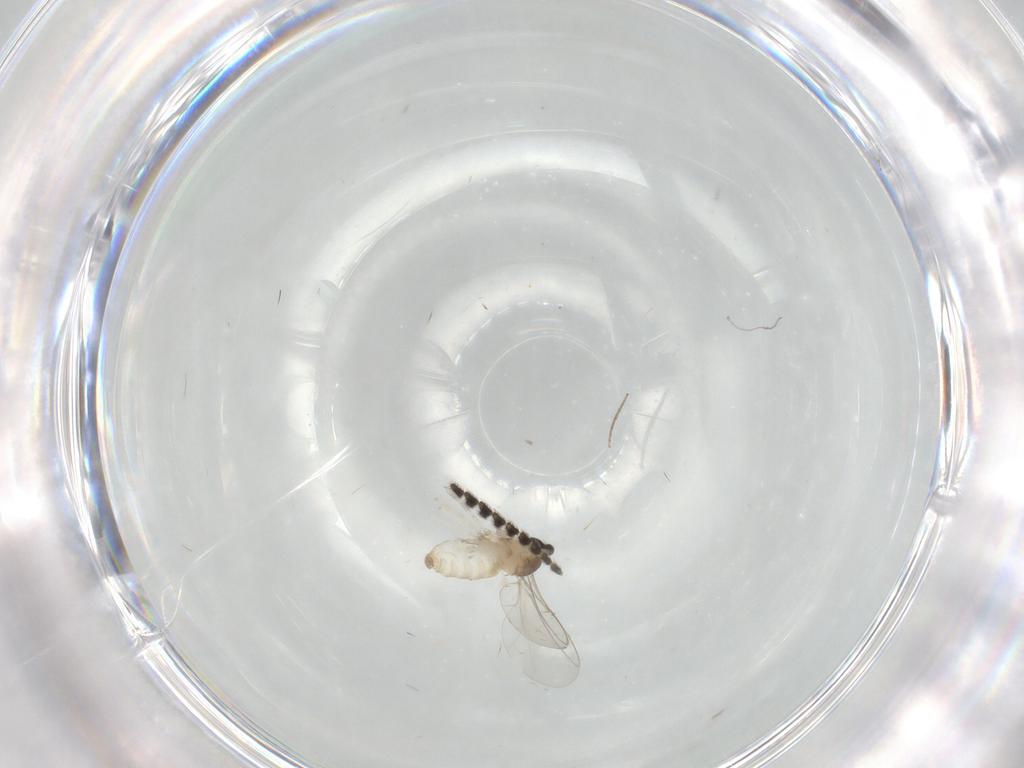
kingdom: Animalia
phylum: Arthropoda
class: Insecta
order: Diptera
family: Cecidomyiidae
